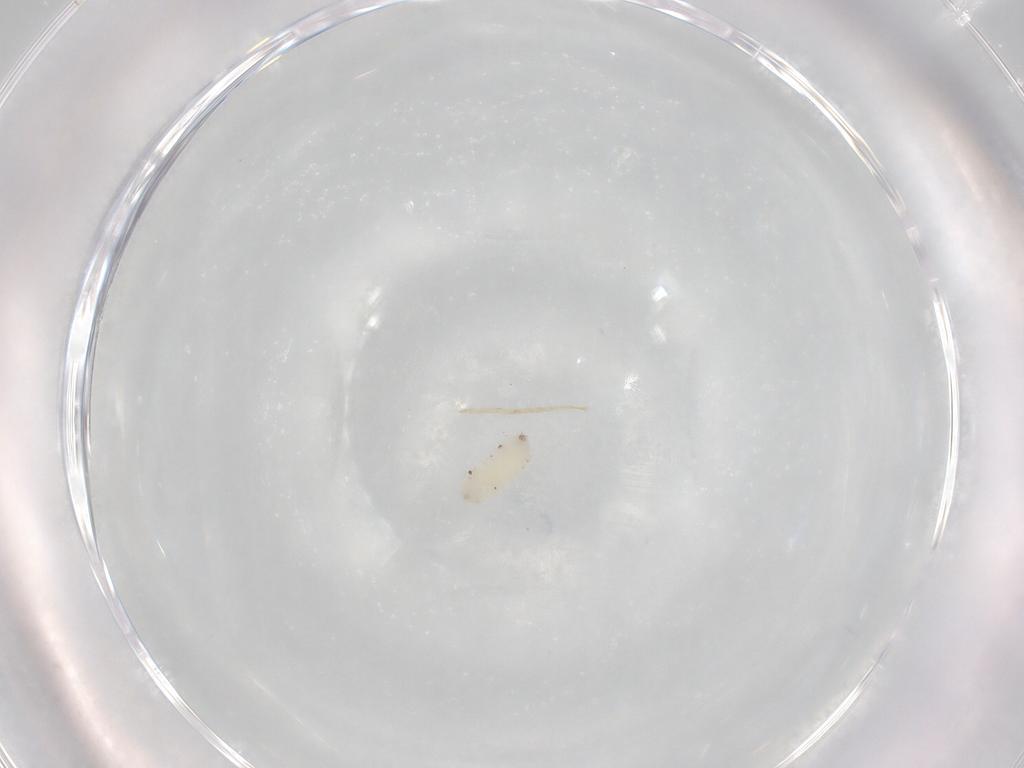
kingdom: Animalia
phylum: Arthropoda
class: Insecta
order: Diptera
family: Cecidomyiidae
